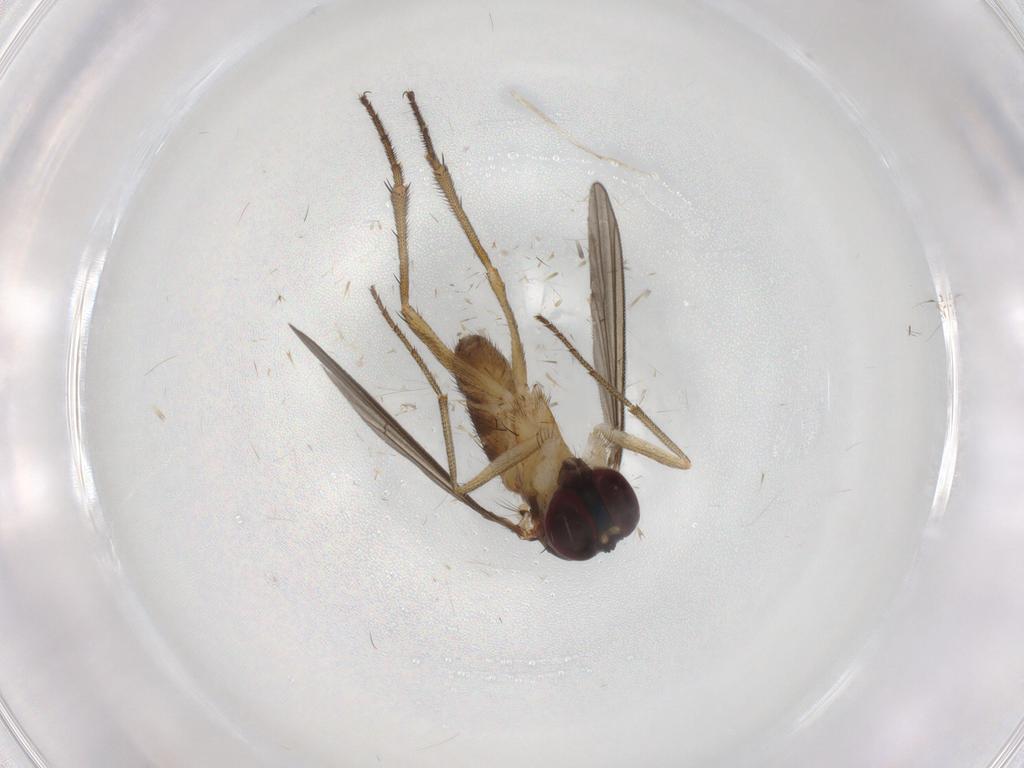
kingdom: Animalia
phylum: Arthropoda
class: Insecta
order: Diptera
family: Dolichopodidae
